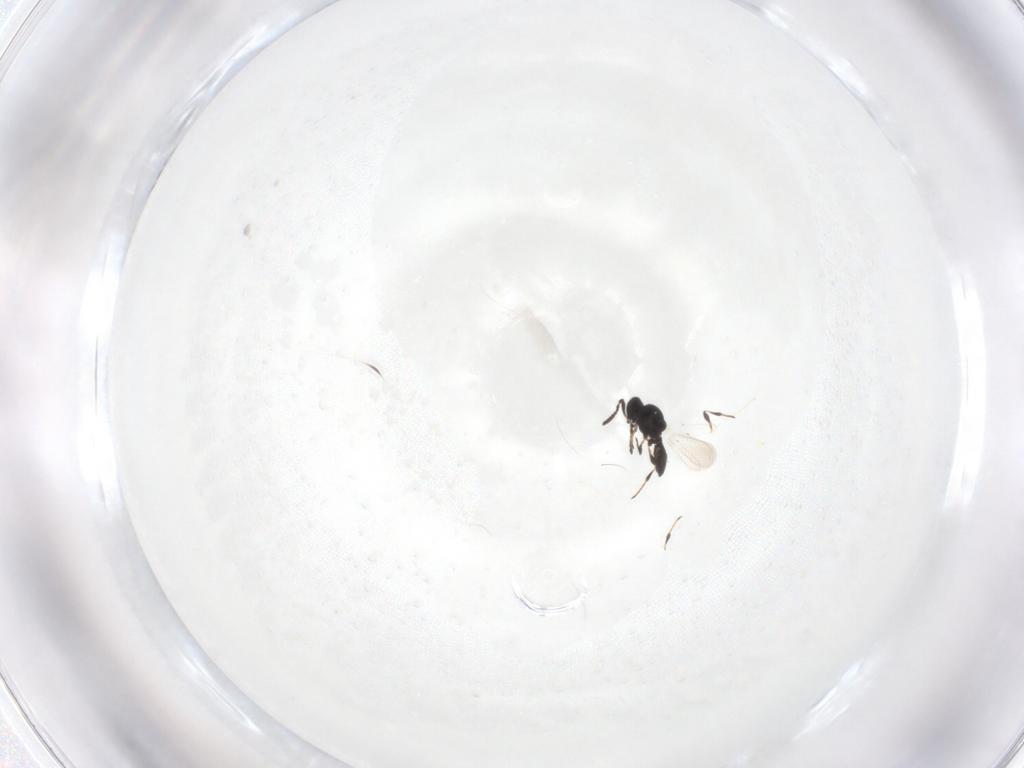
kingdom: Animalia
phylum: Arthropoda
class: Insecta
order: Hymenoptera
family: Platygastridae
